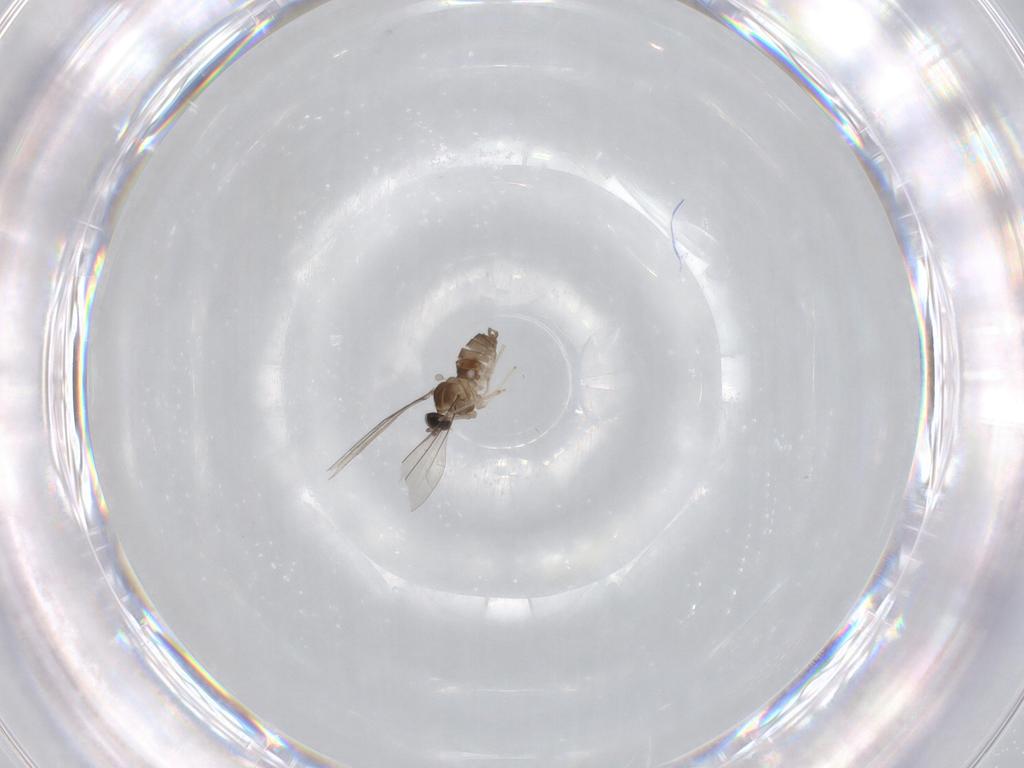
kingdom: Animalia
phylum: Arthropoda
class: Insecta
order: Diptera
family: Cecidomyiidae
